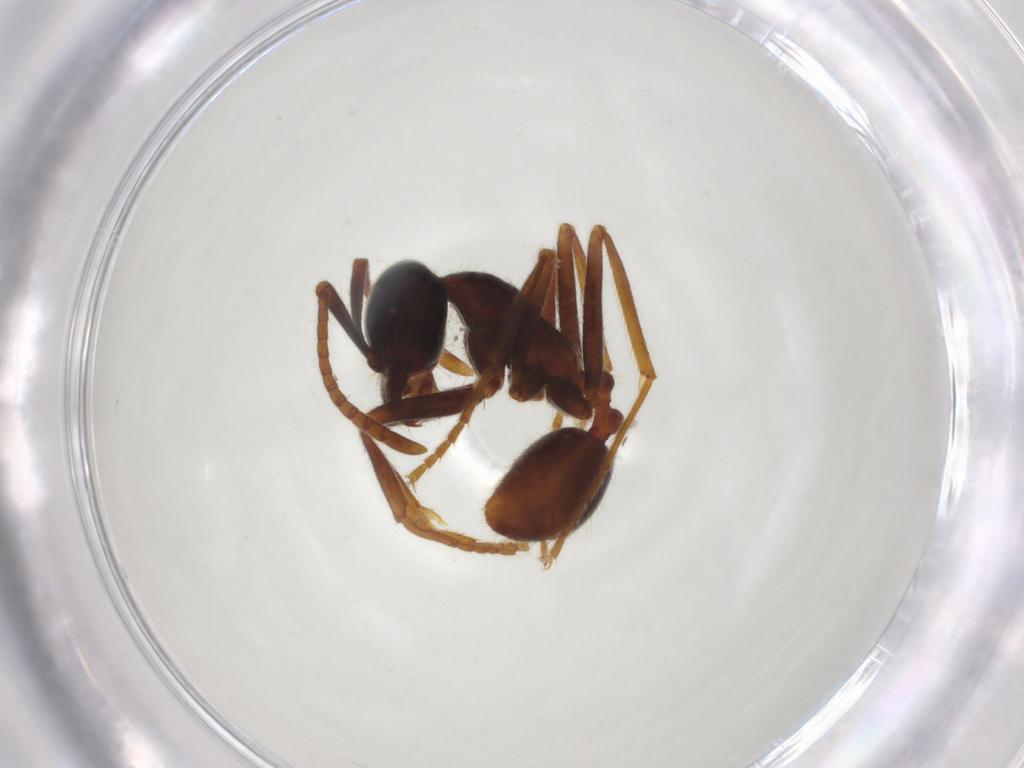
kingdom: Animalia
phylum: Arthropoda
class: Insecta
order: Hymenoptera
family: Formicidae
